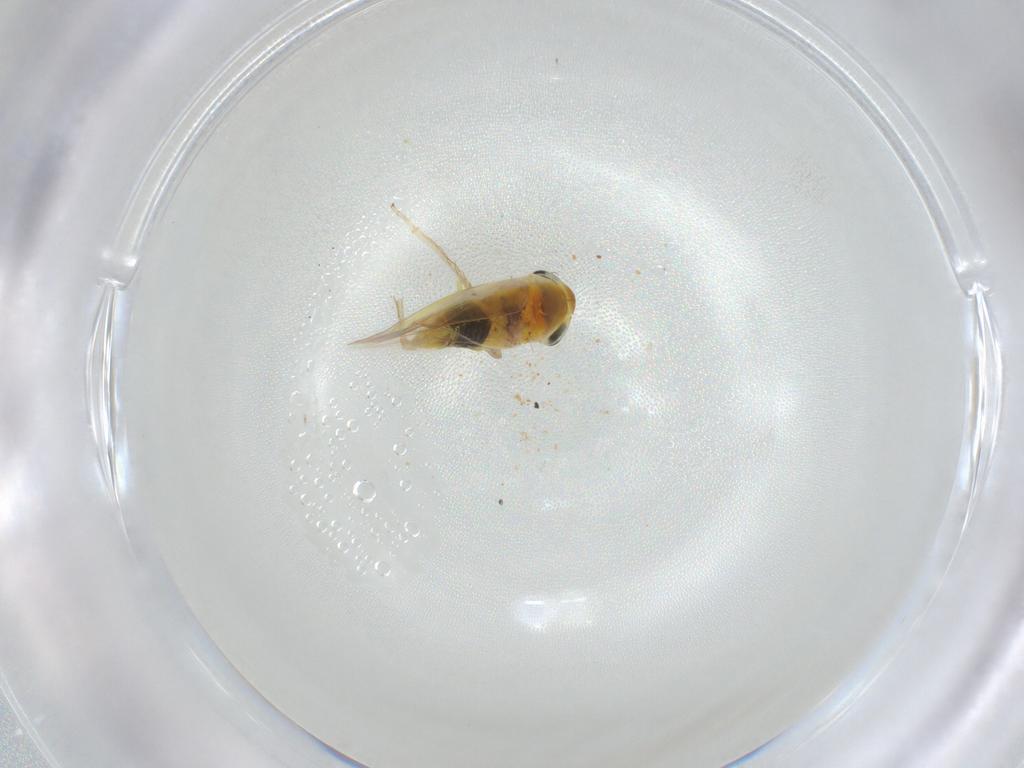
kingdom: Animalia
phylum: Arthropoda
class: Insecta
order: Hemiptera
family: Cicadellidae
